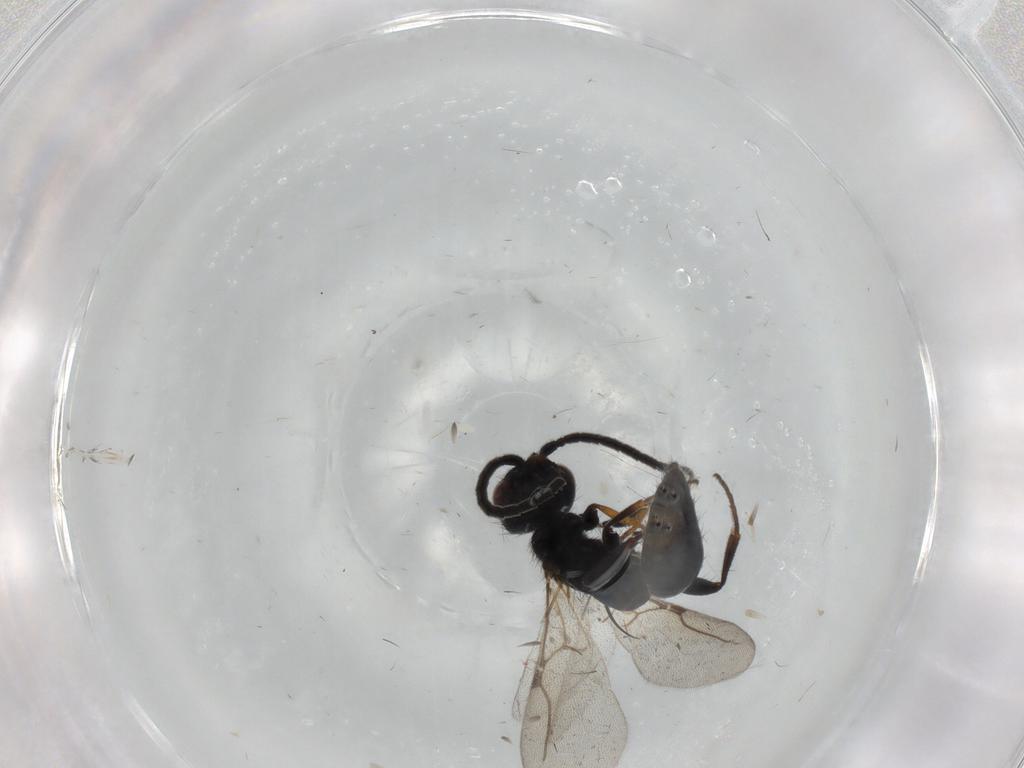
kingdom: Animalia
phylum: Arthropoda
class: Insecta
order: Hymenoptera
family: Bethylidae
